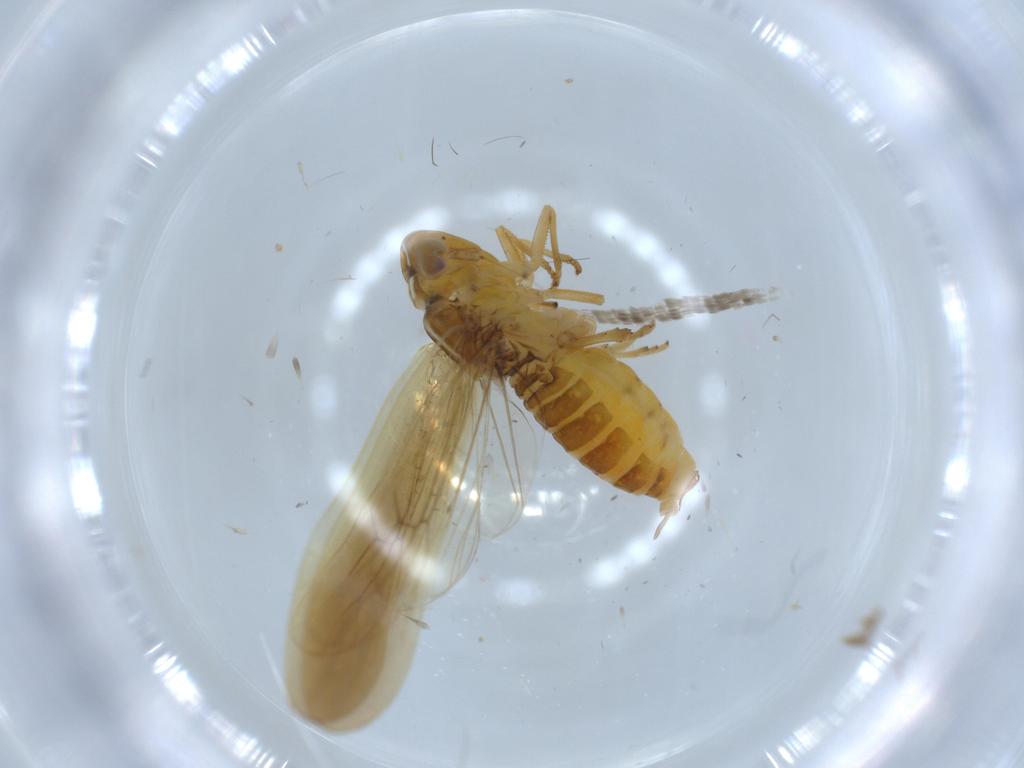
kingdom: Animalia
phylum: Arthropoda
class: Insecta
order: Hemiptera
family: Delphacidae
